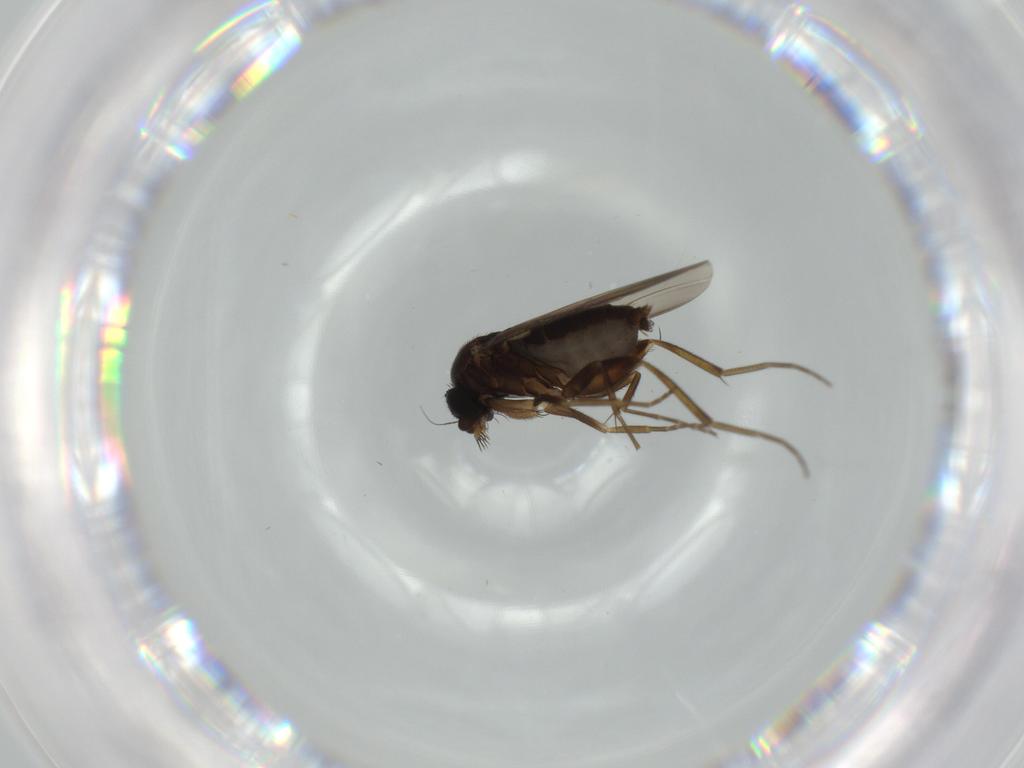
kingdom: Animalia
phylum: Arthropoda
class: Insecta
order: Diptera
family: Phoridae
